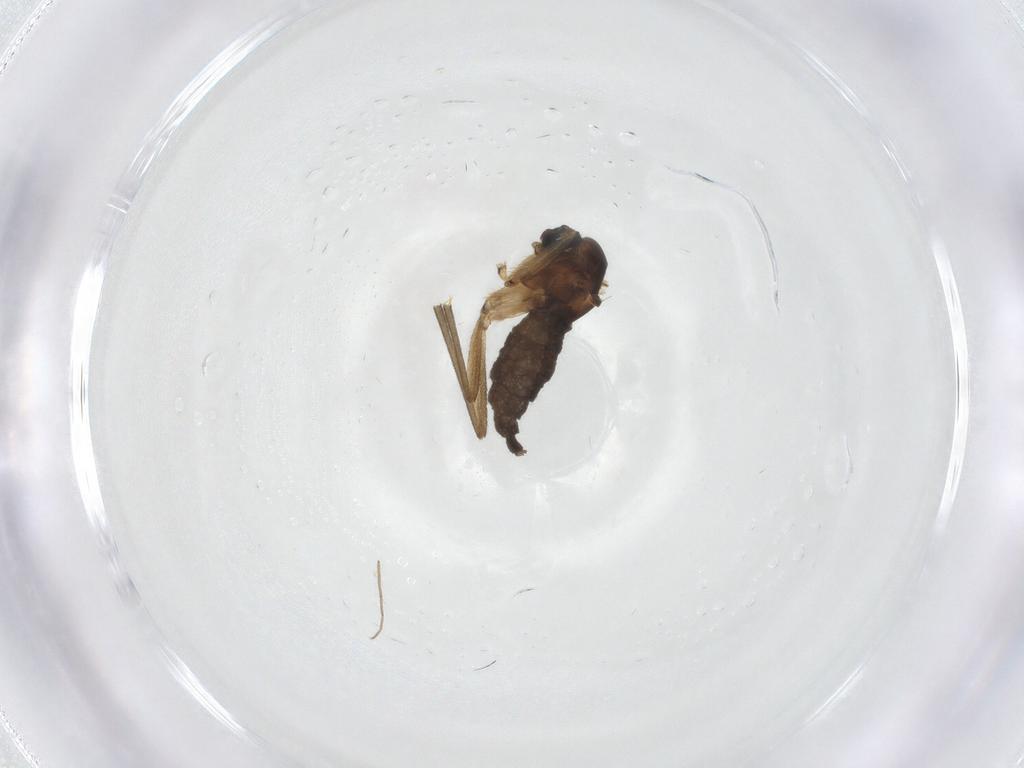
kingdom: Animalia
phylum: Arthropoda
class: Insecta
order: Diptera
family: Sciaridae
